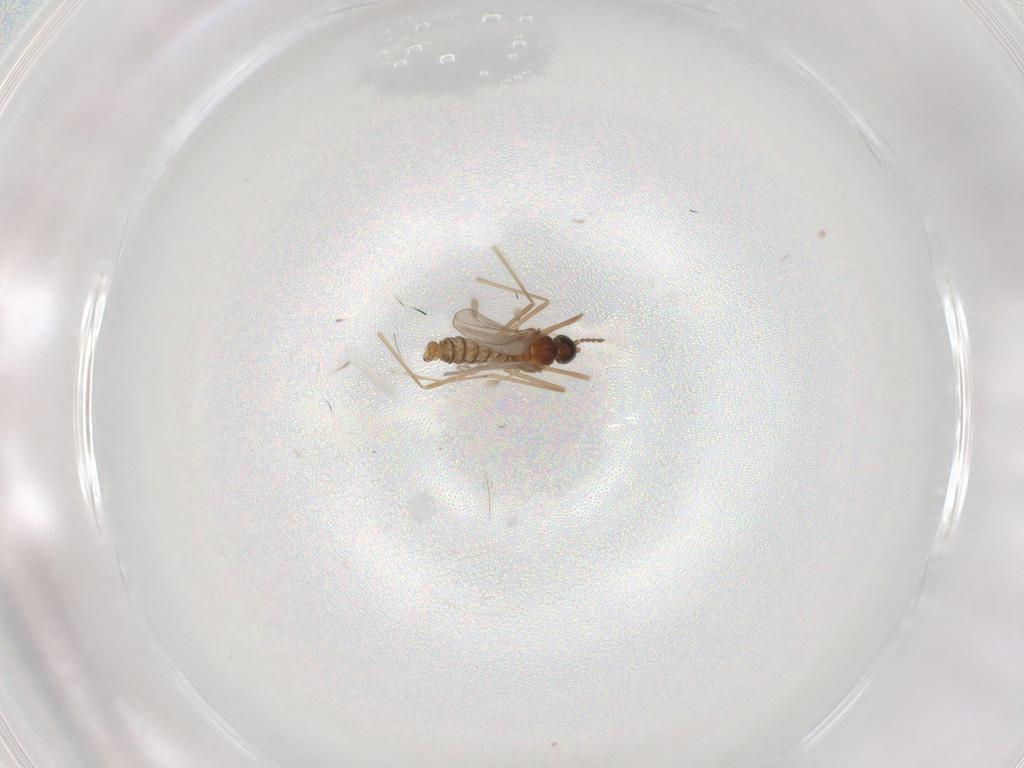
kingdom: Animalia
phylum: Arthropoda
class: Insecta
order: Diptera
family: Cecidomyiidae
